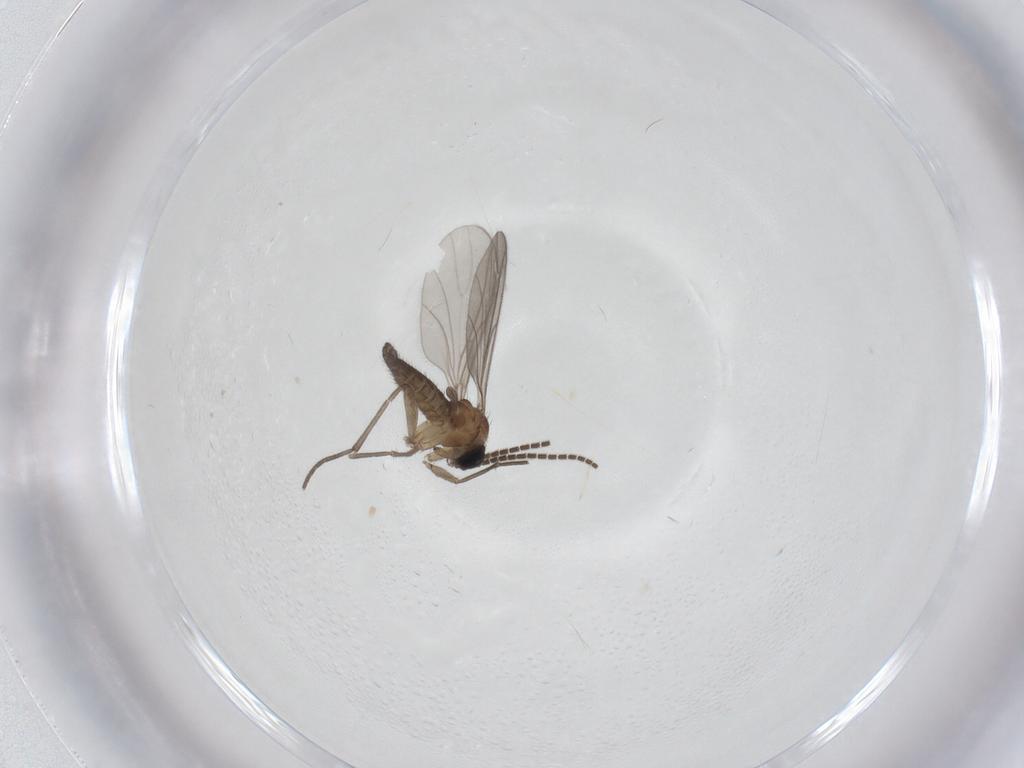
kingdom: Animalia
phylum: Arthropoda
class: Insecta
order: Diptera
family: Sciaridae
